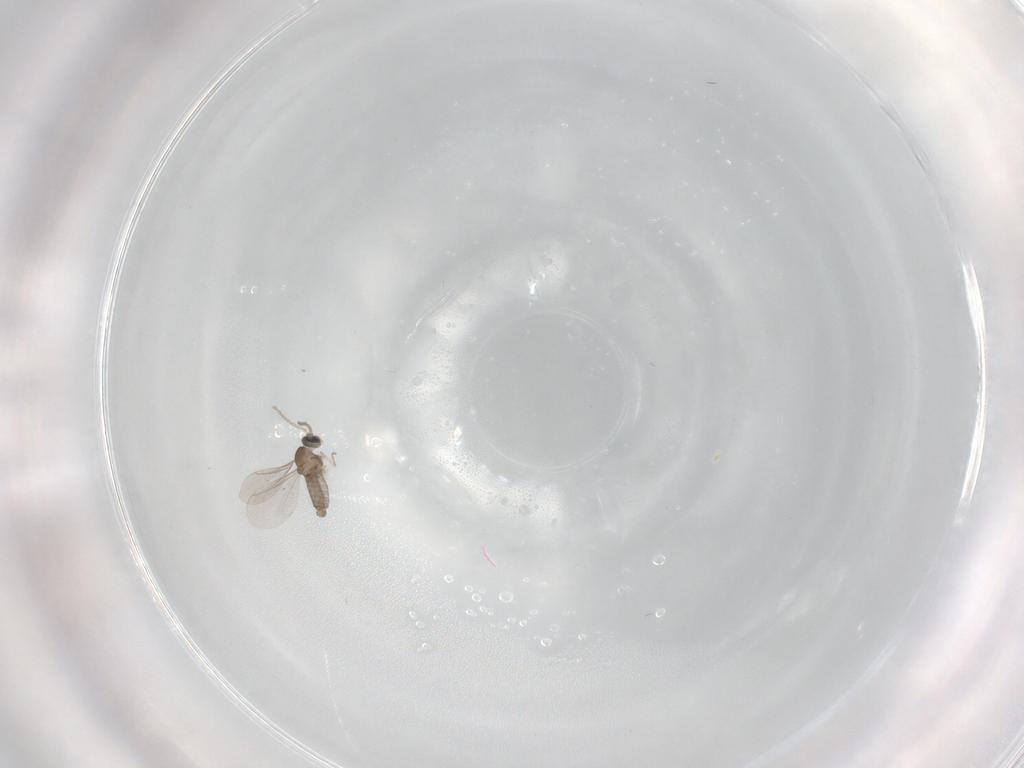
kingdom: Animalia
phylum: Arthropoda
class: Insecta
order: Diptera
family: Cecidomyiidae
